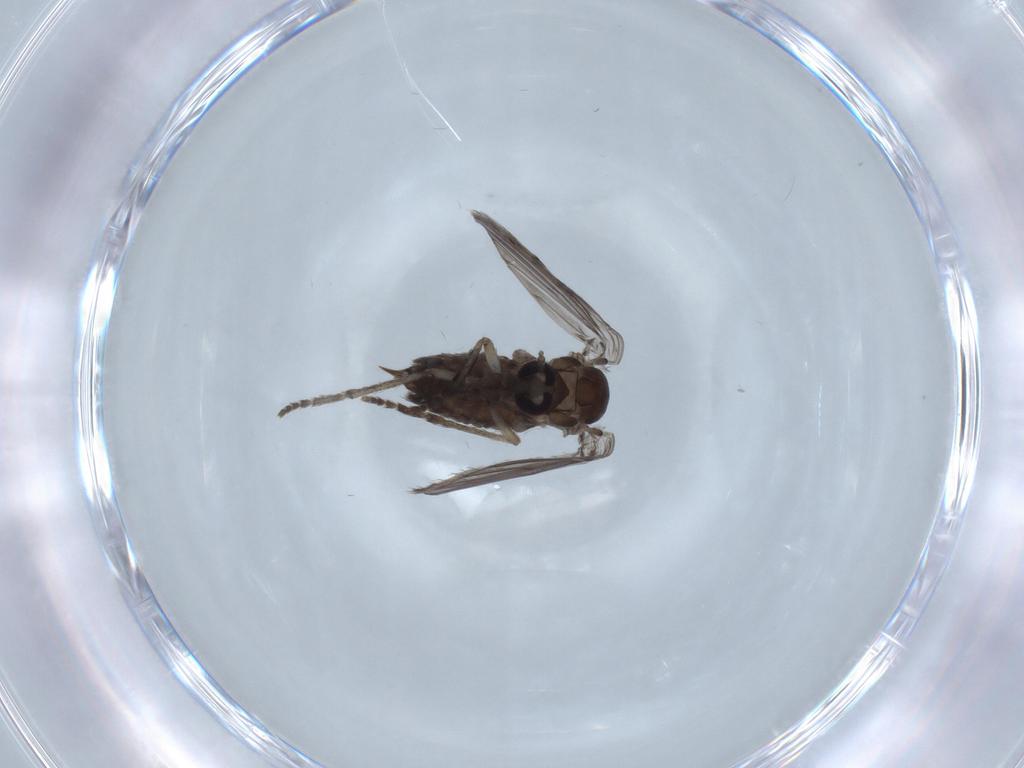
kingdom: Animalia
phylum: Arthropoda
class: Insecta
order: Diptera
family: Psychodidae
